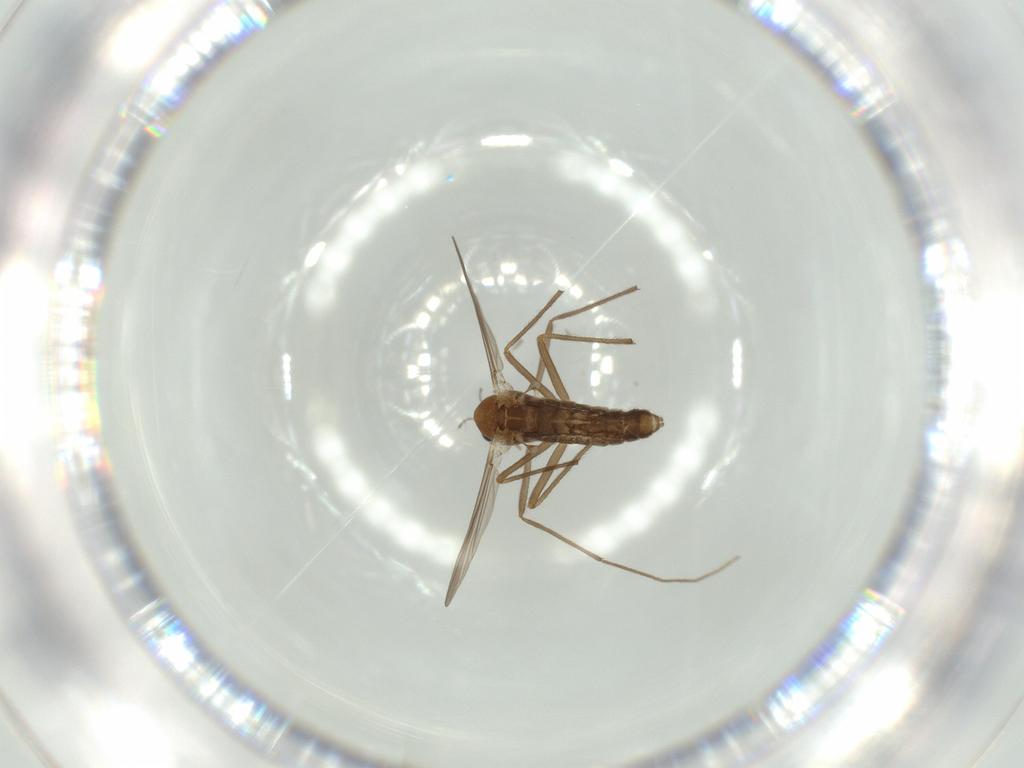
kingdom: Animalia
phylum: Arthropoda
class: Insecta
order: Diptera
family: Chironomidae
